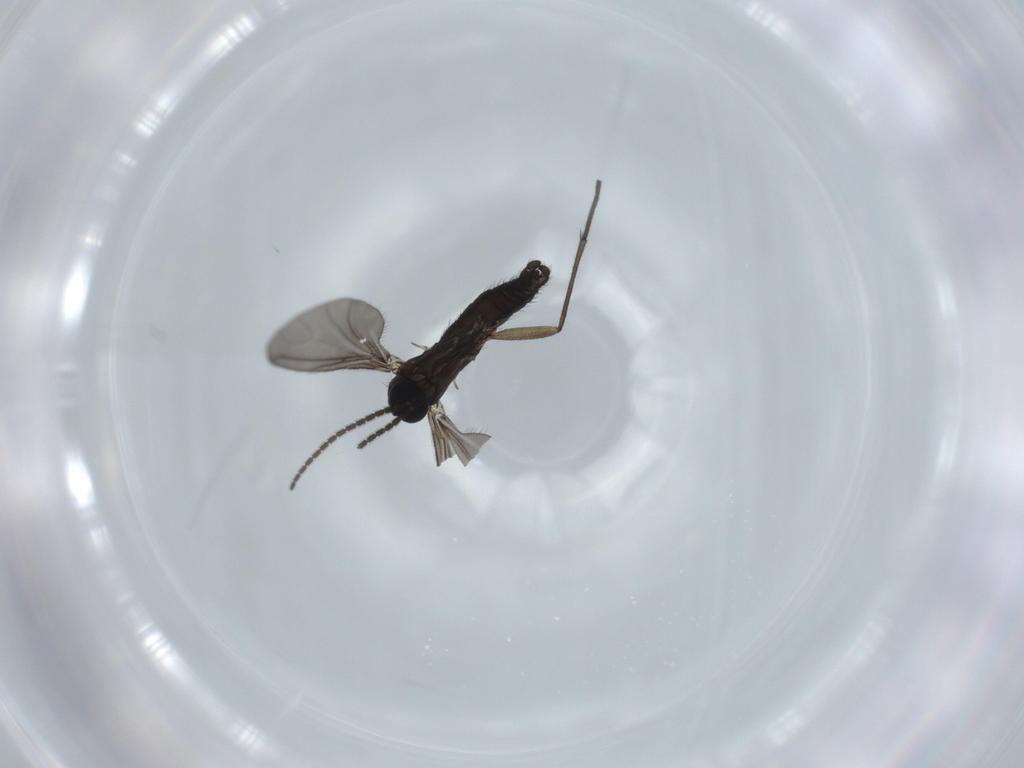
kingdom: Animalia
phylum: Arthropoda
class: Insecta
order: Diptera
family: Sciaridae
